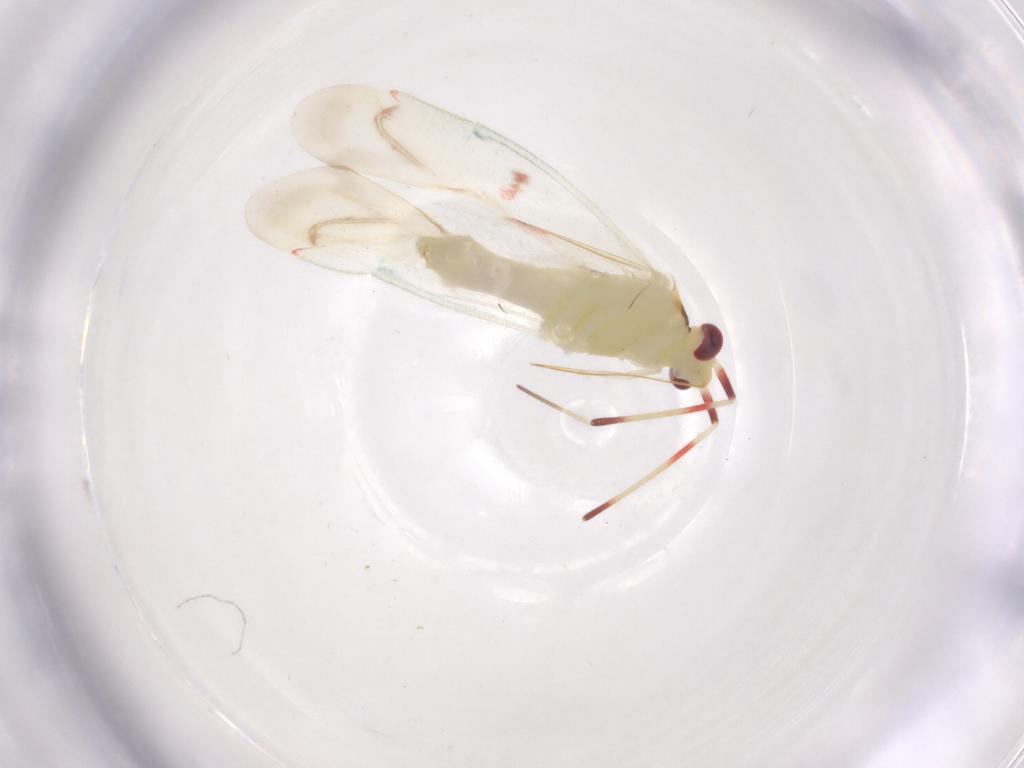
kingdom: Animalia
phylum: Arthropoda
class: Insecta
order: Hemiptera
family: Miridae
